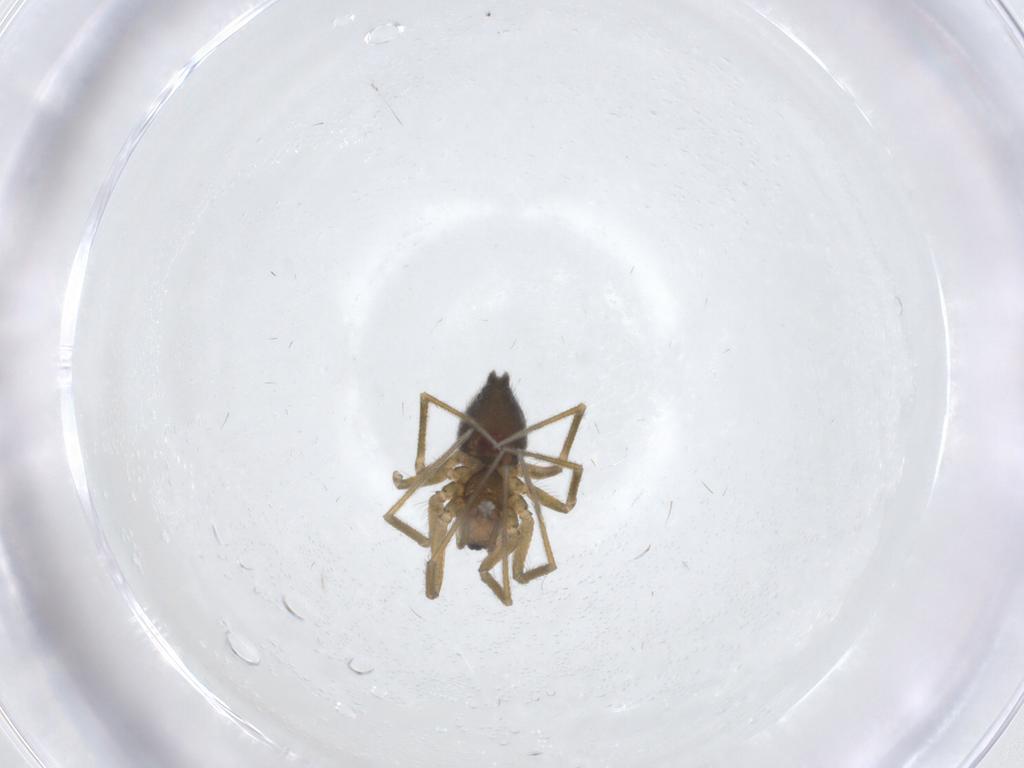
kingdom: Animalia
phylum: Arthropoda
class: Arachnida
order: Araneae
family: Linyphiidae
